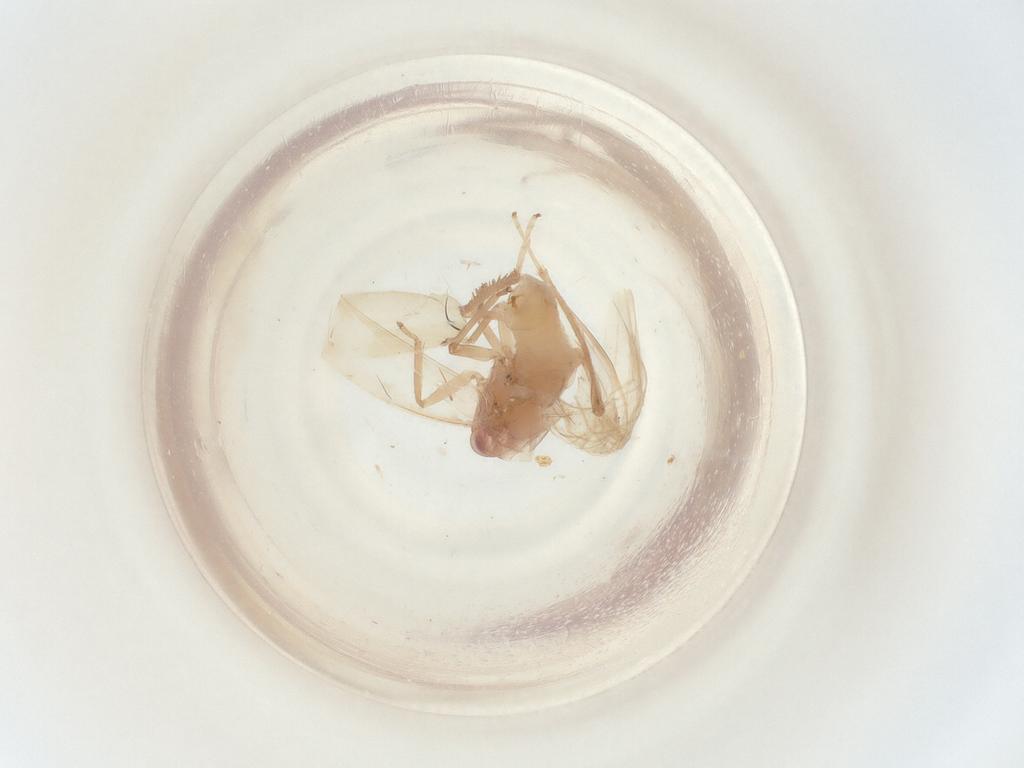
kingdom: Animalia
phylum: Arthropoda
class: Insecta
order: Hemiptera
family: Cicadellidae
